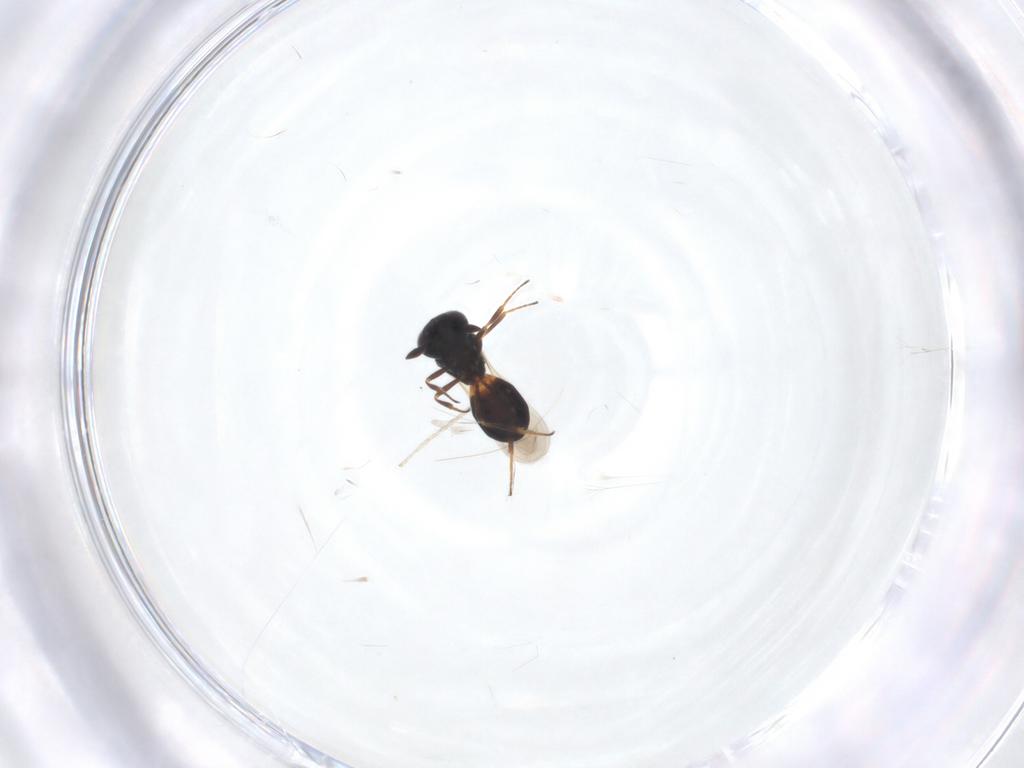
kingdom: Animalia
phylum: Arthropoda
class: Insecta
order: Hymenoptera
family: Scelionidae
